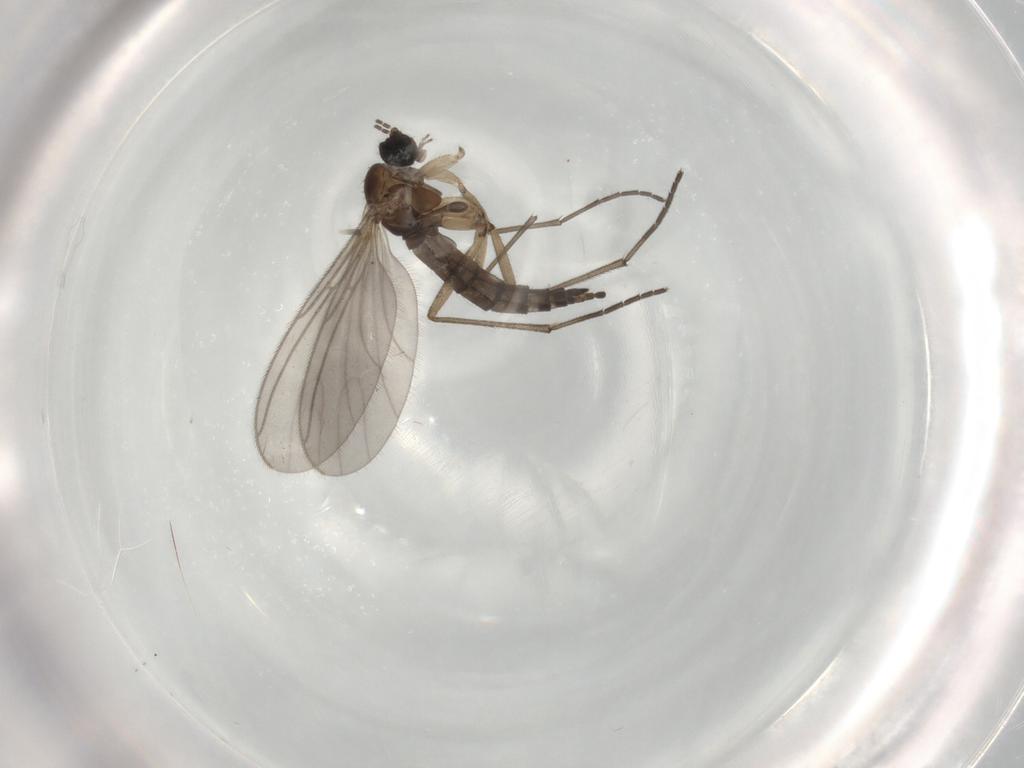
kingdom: Animalia
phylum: Arthropoda
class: Insecta
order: Diptera
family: Sciaridae
